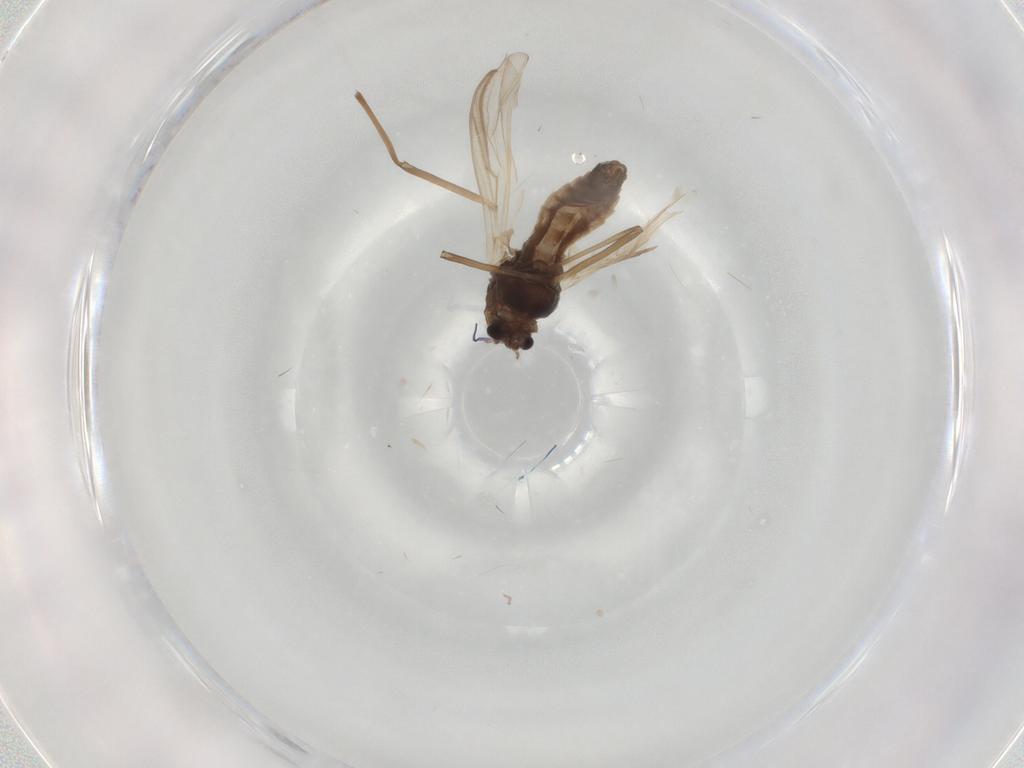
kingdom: Animalia
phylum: Arthropoda
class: Insecta
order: Diptera
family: Chironomidae
